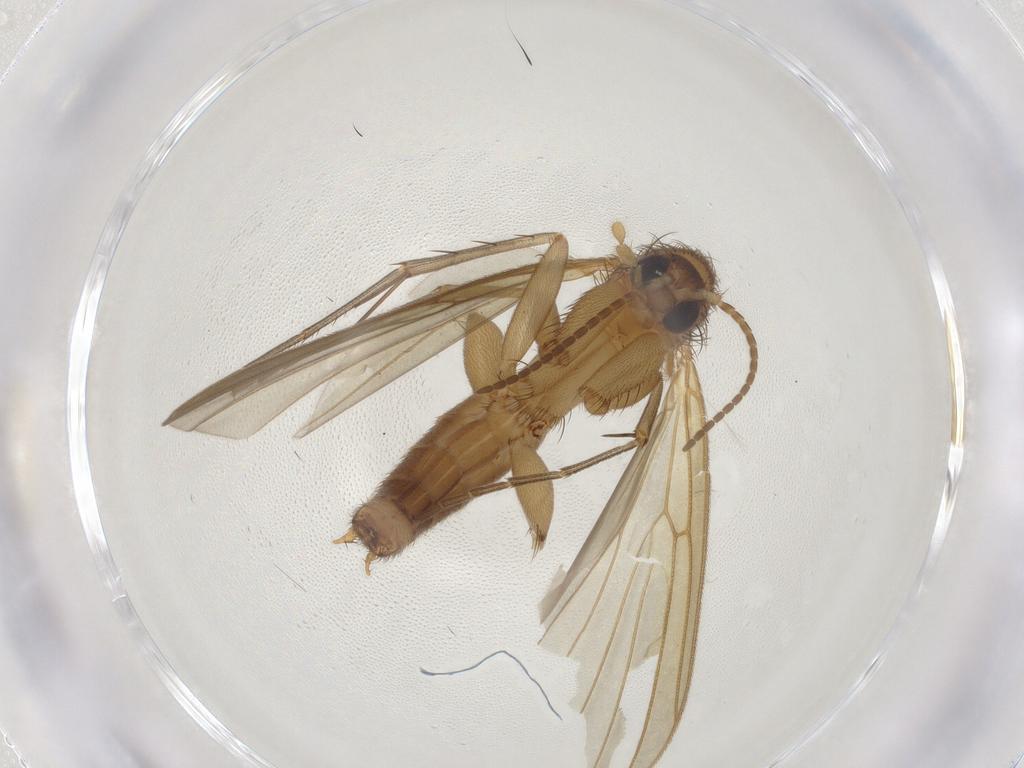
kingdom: Animalia
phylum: Arthropoda
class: Insecta
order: Diptera
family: Mycetophilidae
